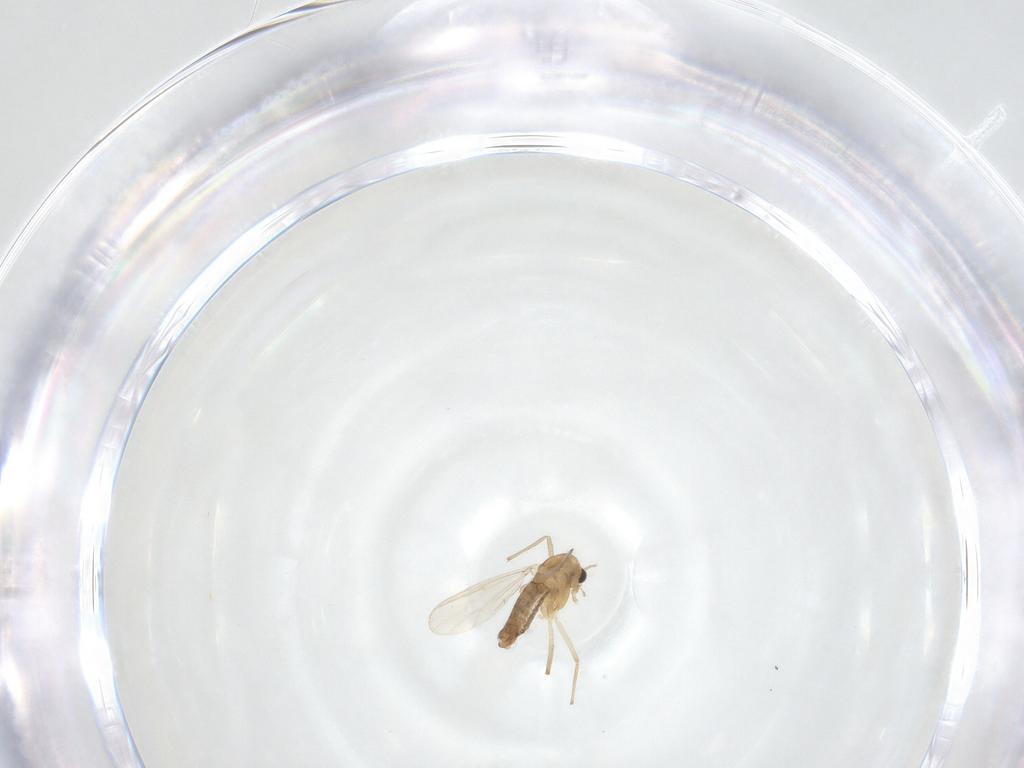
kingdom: Animalia
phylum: Arthropoda
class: Insecta
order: Diptera
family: Chironomidae
